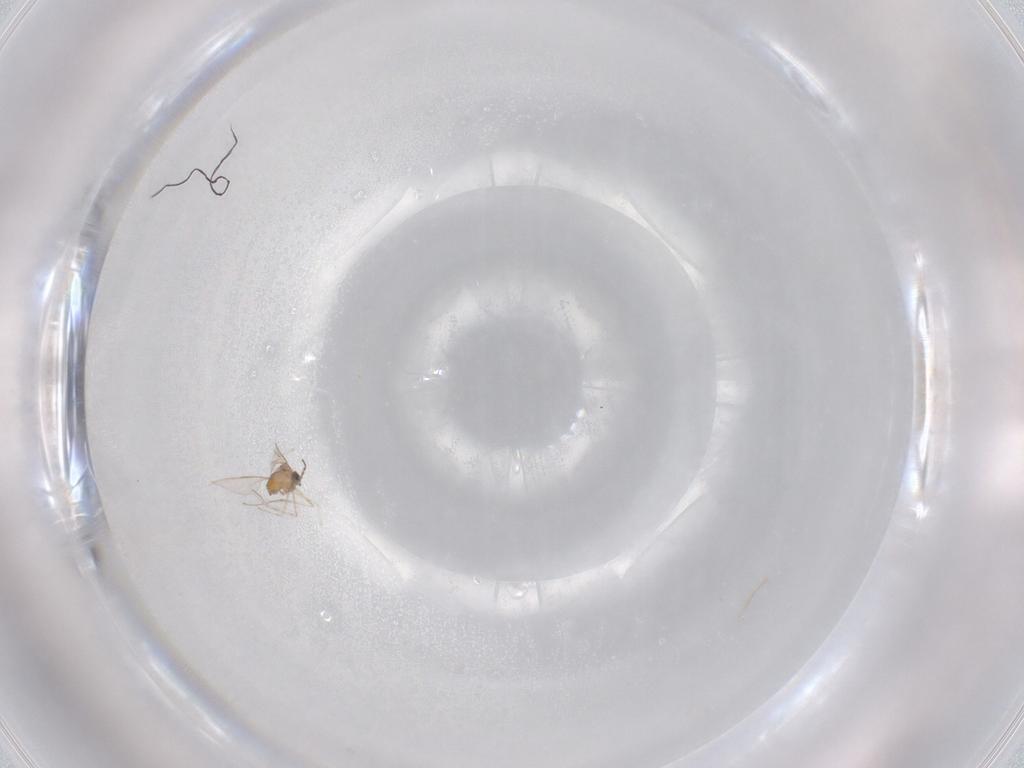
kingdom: Animalia
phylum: Arthropoda
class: Insecta
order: Diptera
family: Cecidomyiidae
